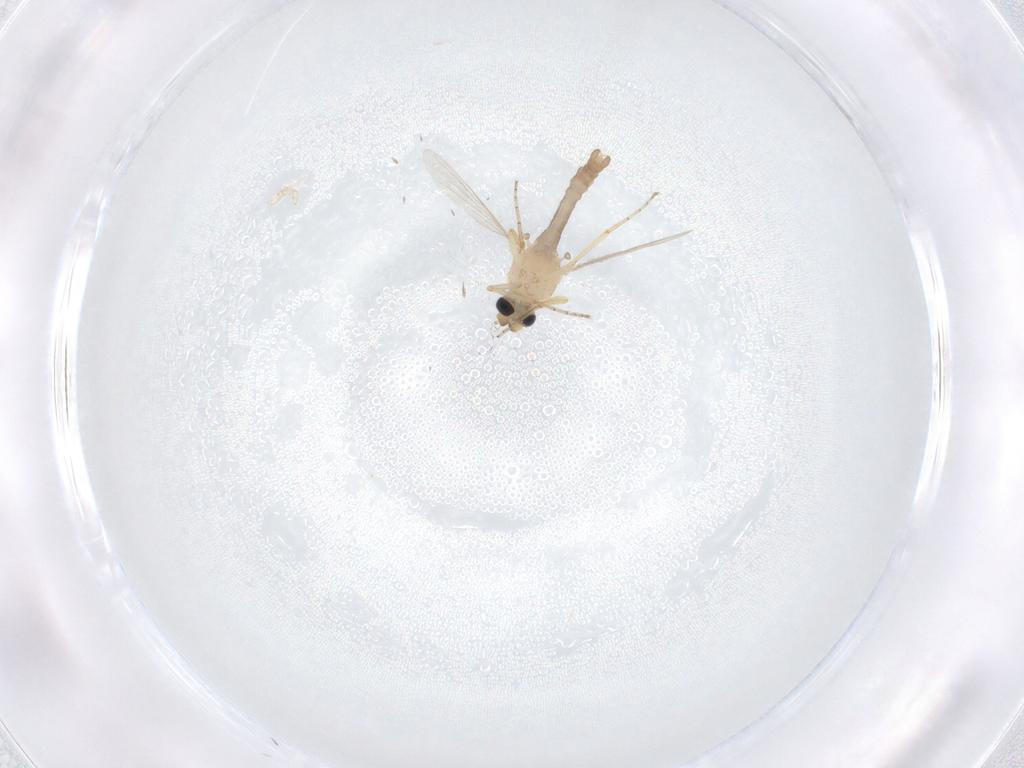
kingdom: Animalia
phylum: Arthropoda
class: Insecta
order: Diptera
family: Ceratopogonidae
